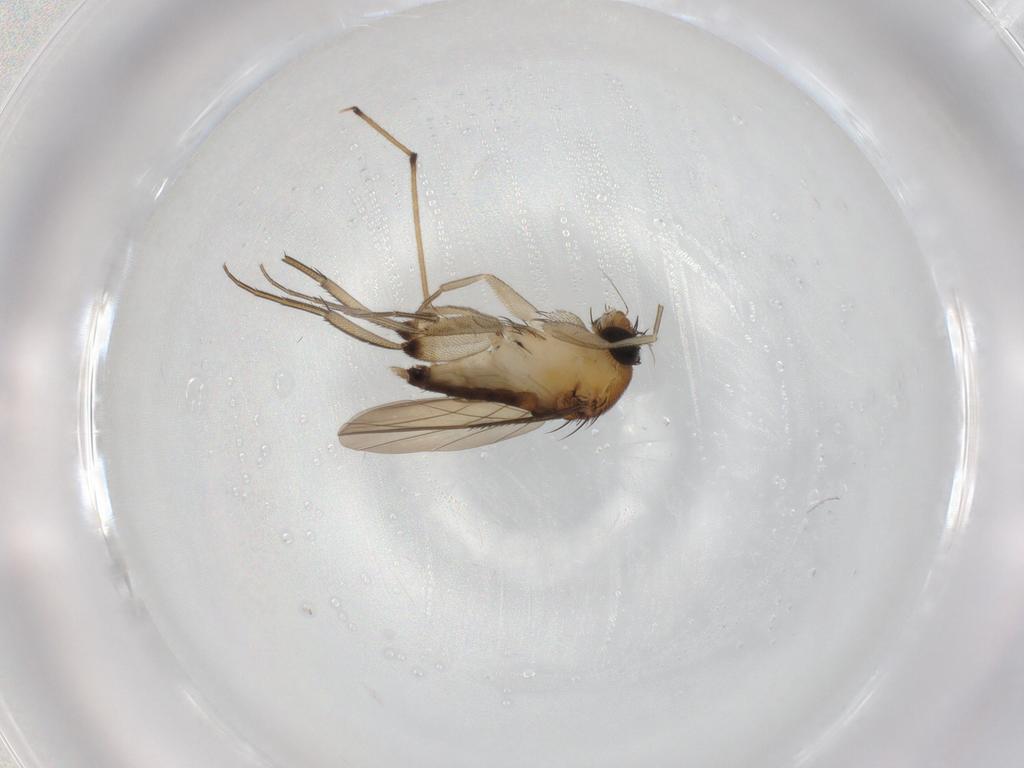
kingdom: Animalia
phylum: Arthropoda
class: Insecta
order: Diptera
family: Phoridae
